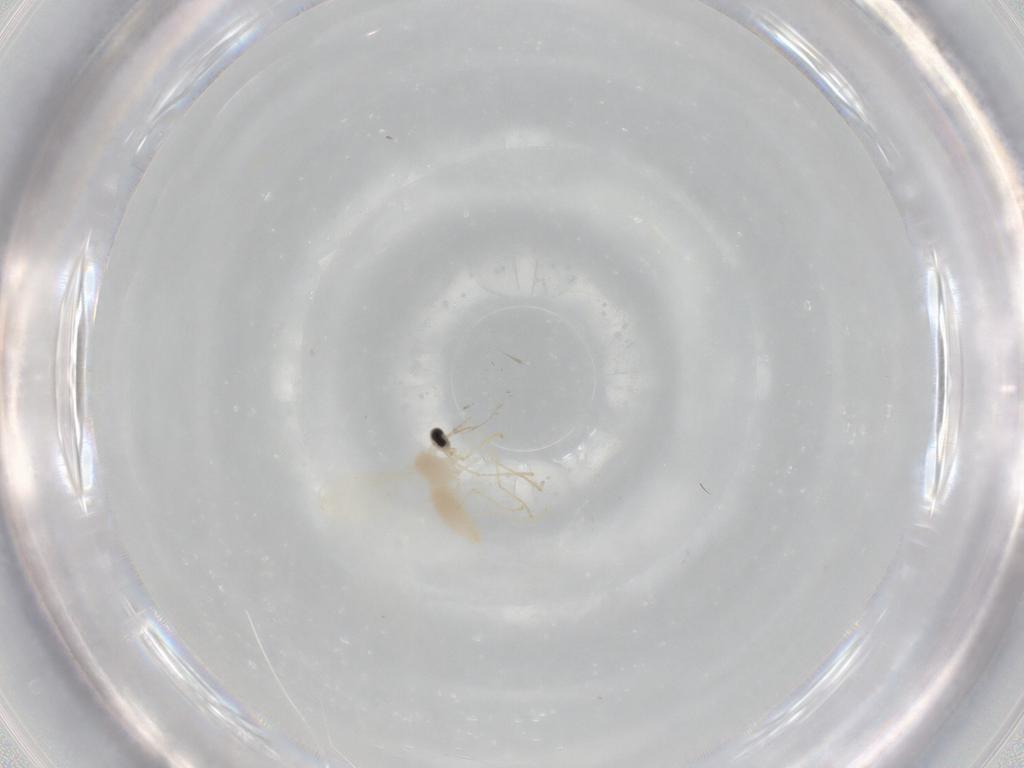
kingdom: Animalia
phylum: Arthropoda
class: Insecta
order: Diptera
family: Cecidomyiidae
